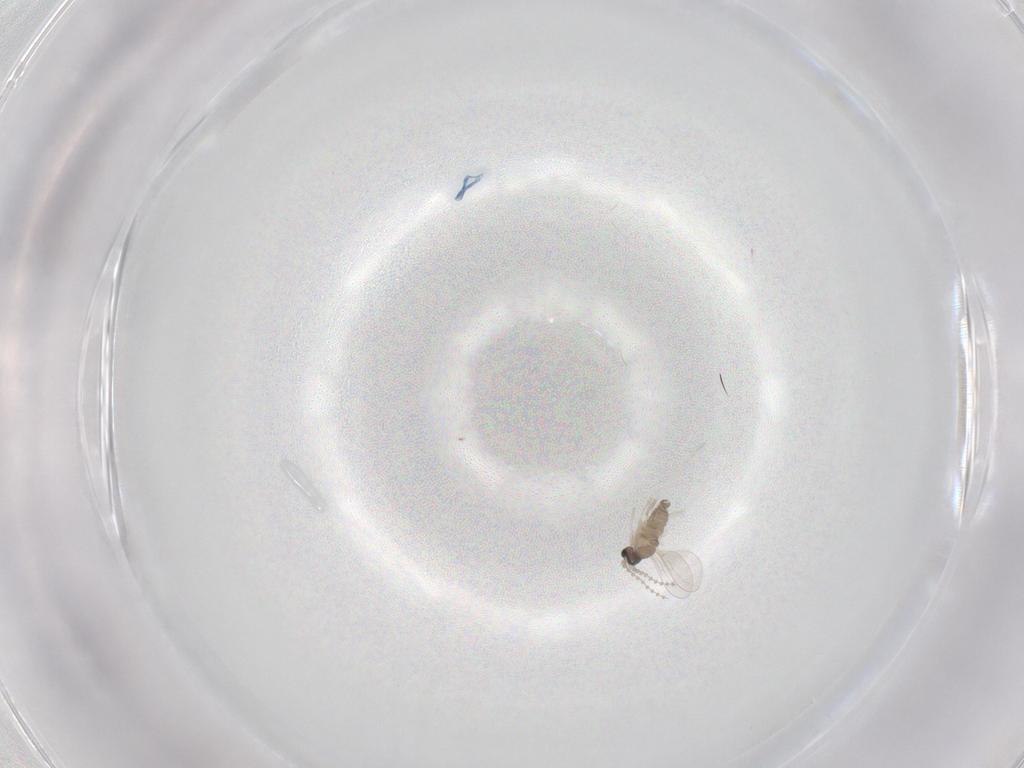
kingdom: Animalia
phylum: Arthropoda
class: Insecta
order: Diptera
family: Cecidomyiidae
